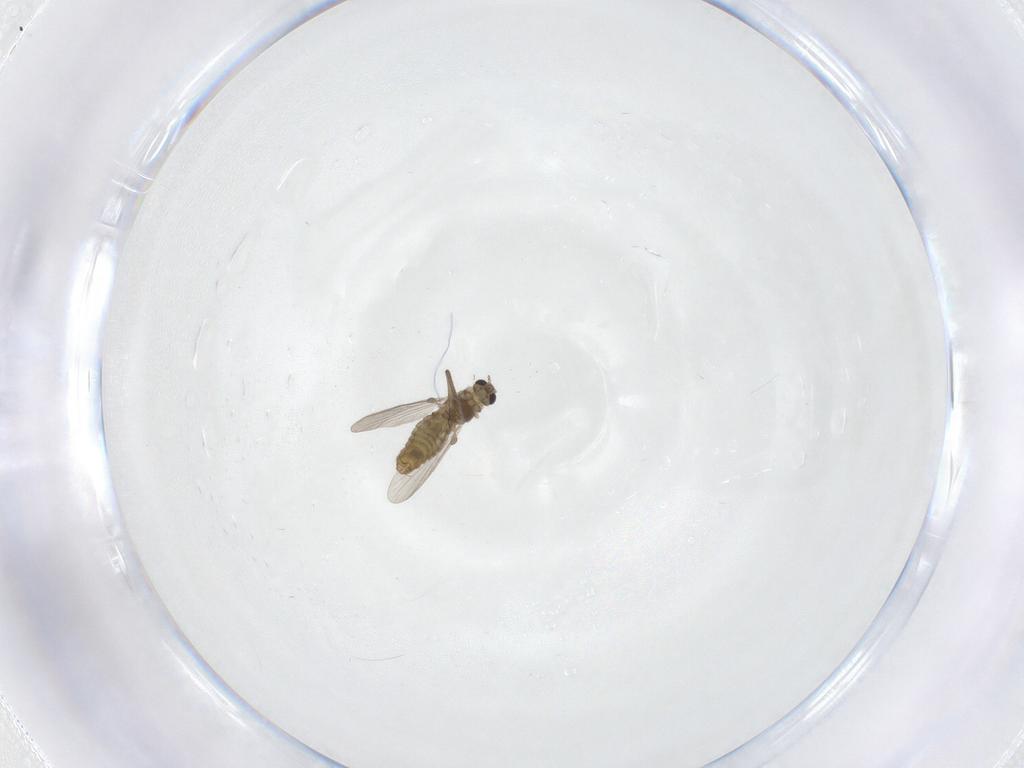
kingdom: Animalia
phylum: Arthropoda
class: Insecta
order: Diptera
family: Chironomidae
